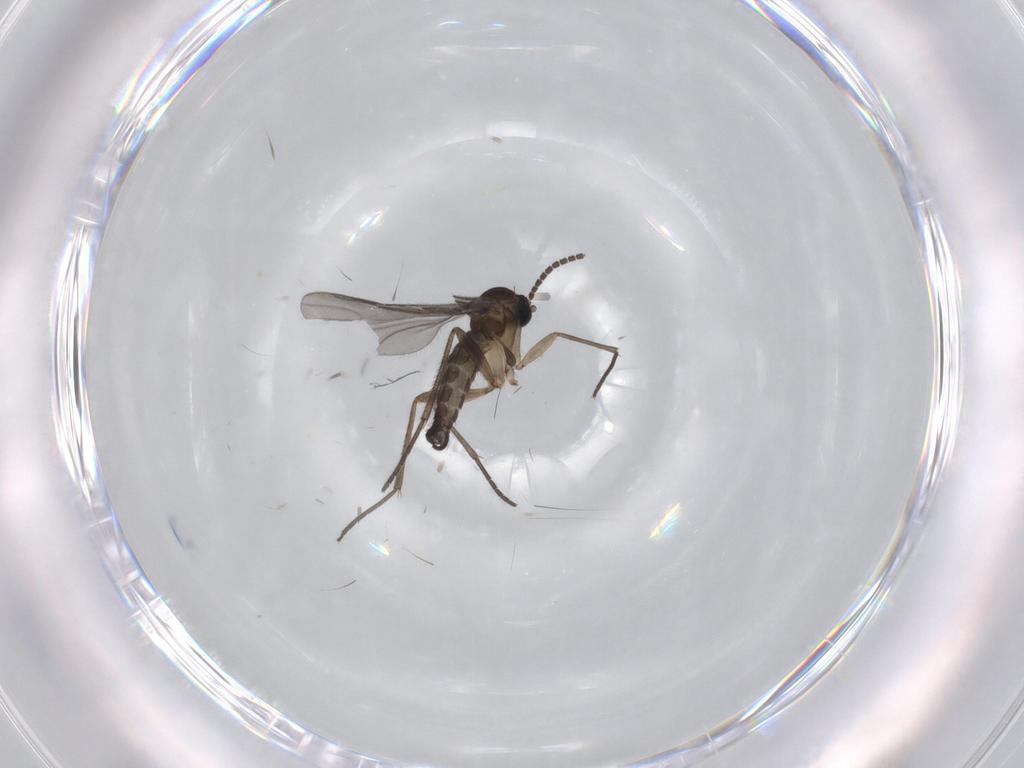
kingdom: Animalia
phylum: Arthropoda
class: Insecta
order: Diptera
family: Sciaridae
